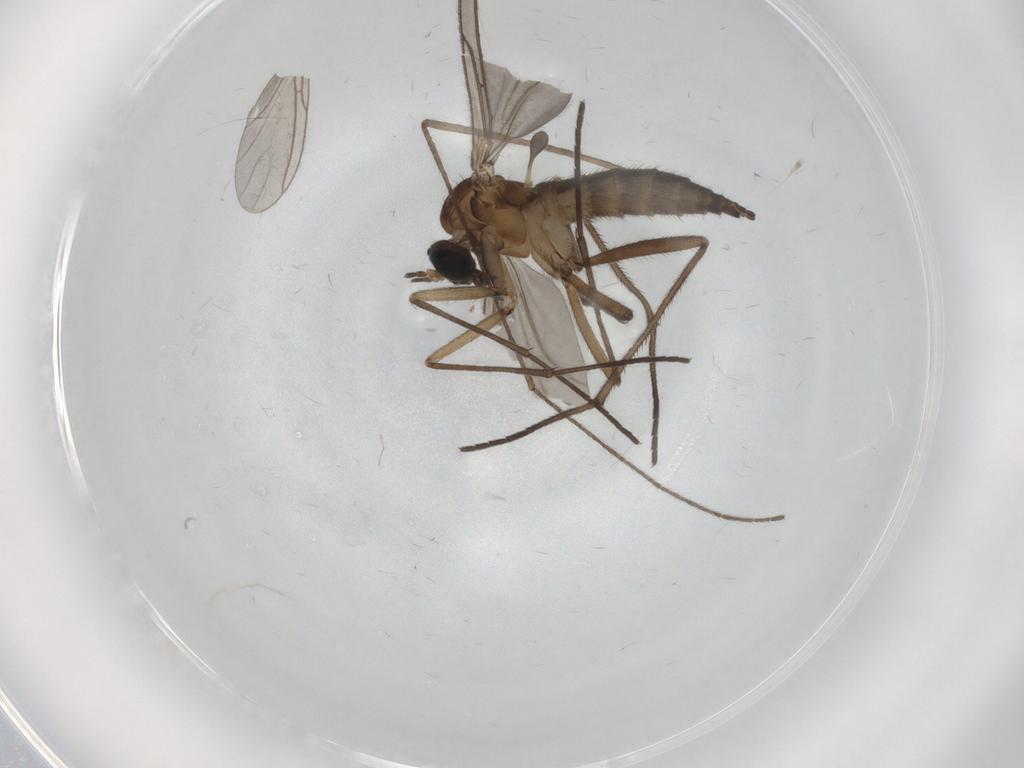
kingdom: Animalia
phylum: Arthropoda
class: Insecta
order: Diptera
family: Sciaridae
